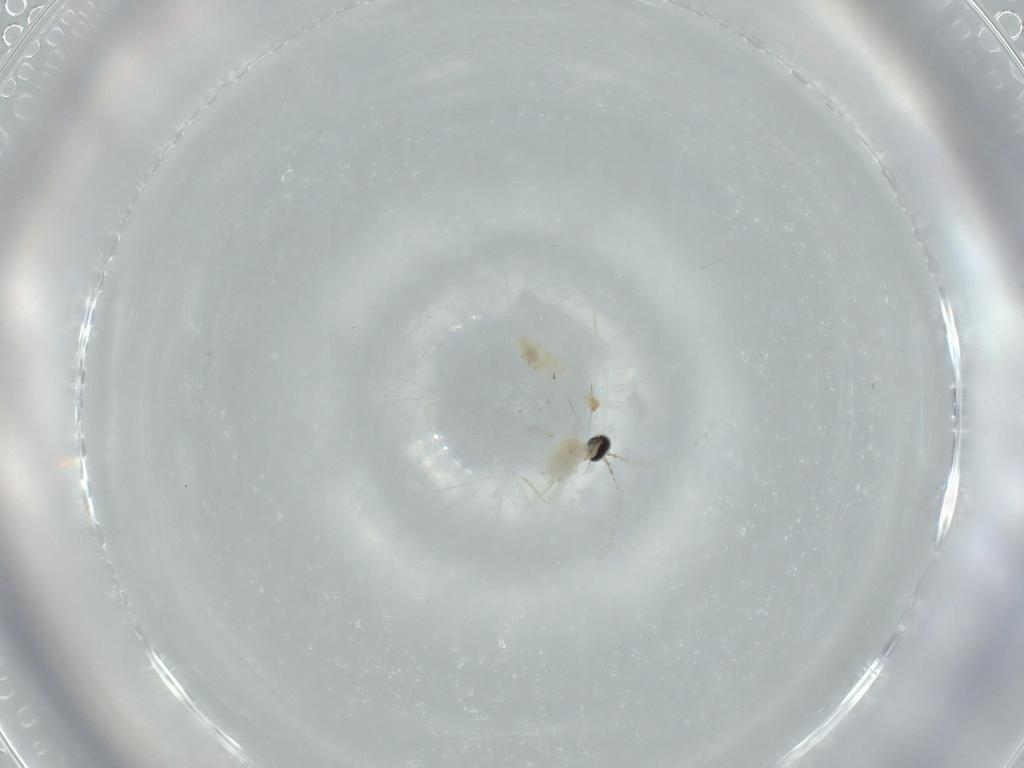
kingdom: Animalia
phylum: Arthropoda
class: Insecta
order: Diptera
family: Cecidomyiidae
